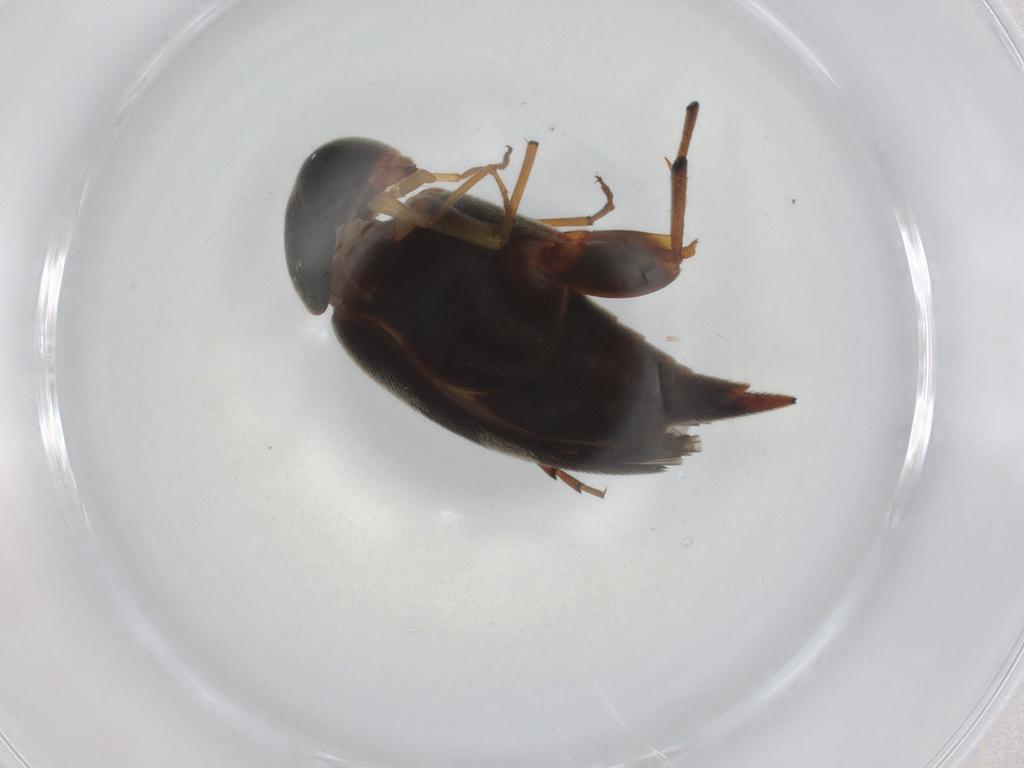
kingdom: Animalia
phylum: Arthropoda
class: Insecta
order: Coleoptera
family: Mordellidae
